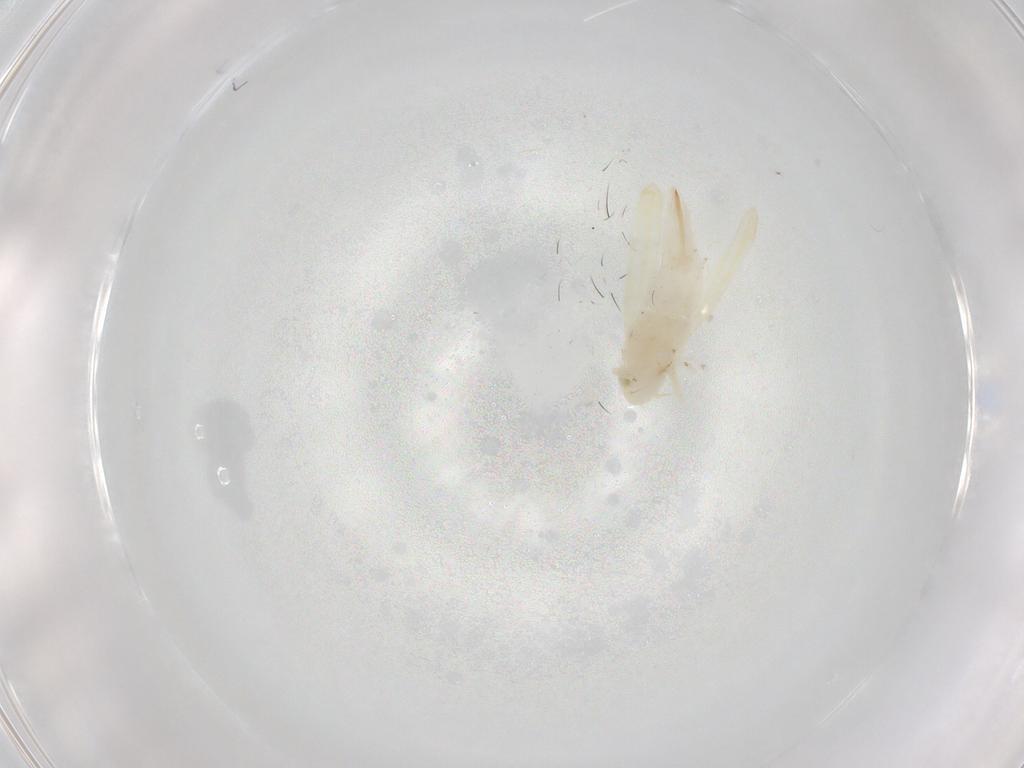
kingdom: Animalia
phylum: Arthropoda
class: Insecta
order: Hemiptera
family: Cicadellidae
